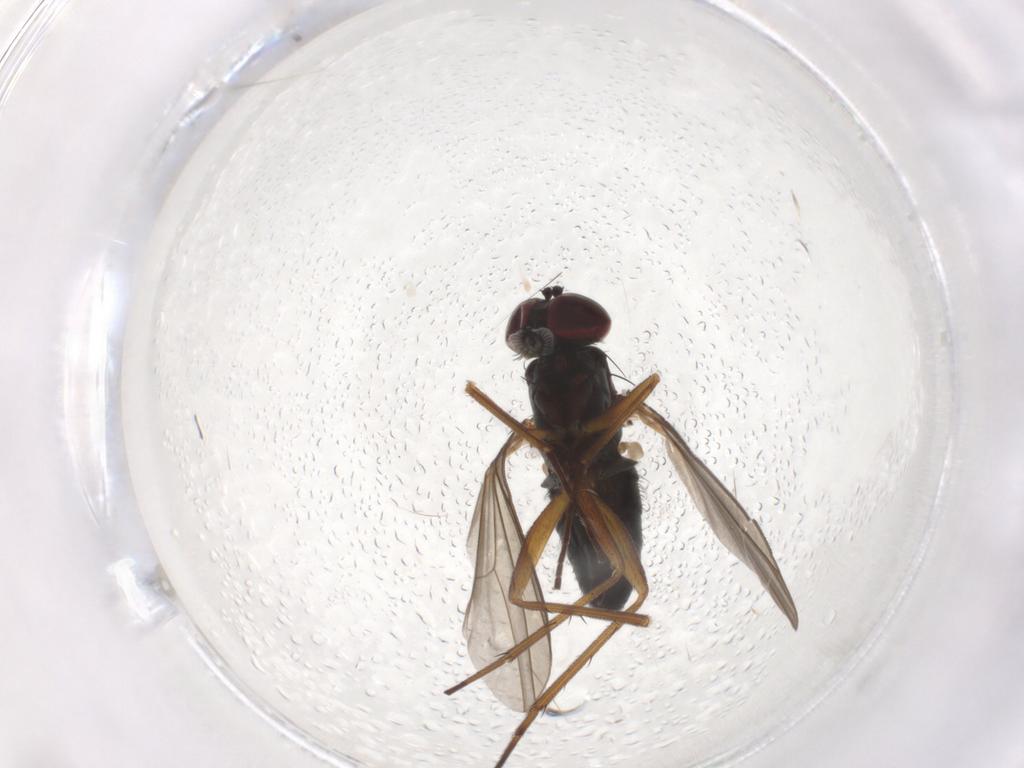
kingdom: Animalia
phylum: Arthropoda
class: Insecta
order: Diptera
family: Dolichopodidae
